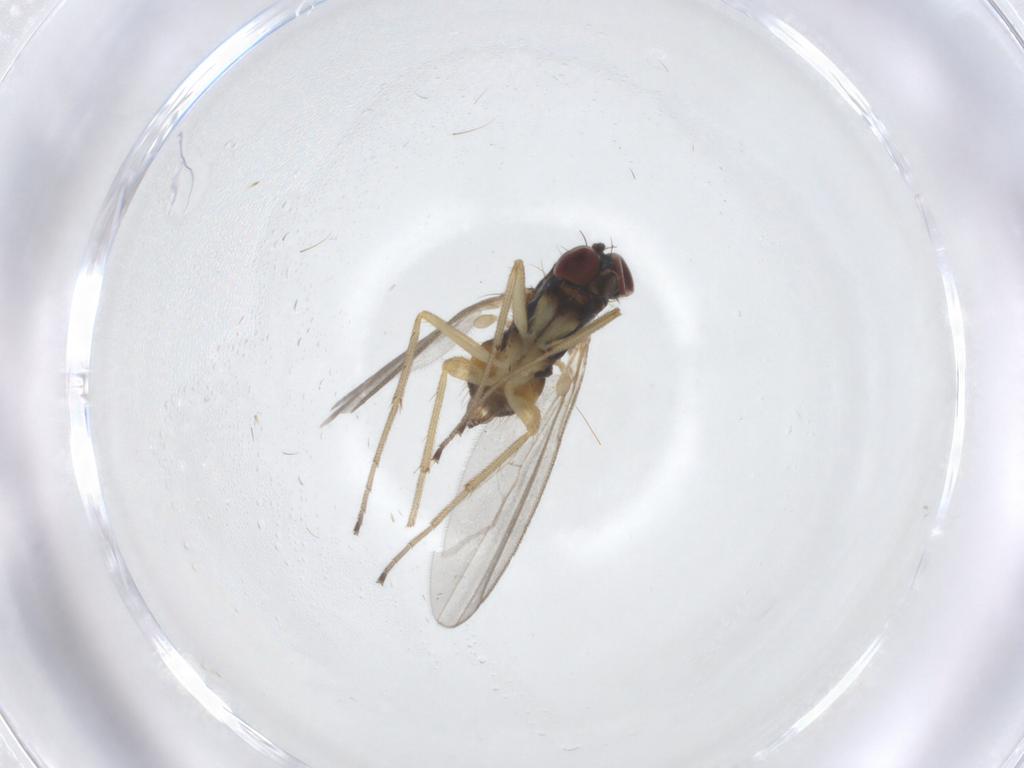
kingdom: Animalia
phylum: Arthropoda
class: Insecta
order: Diptera
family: Dolichopodidae
